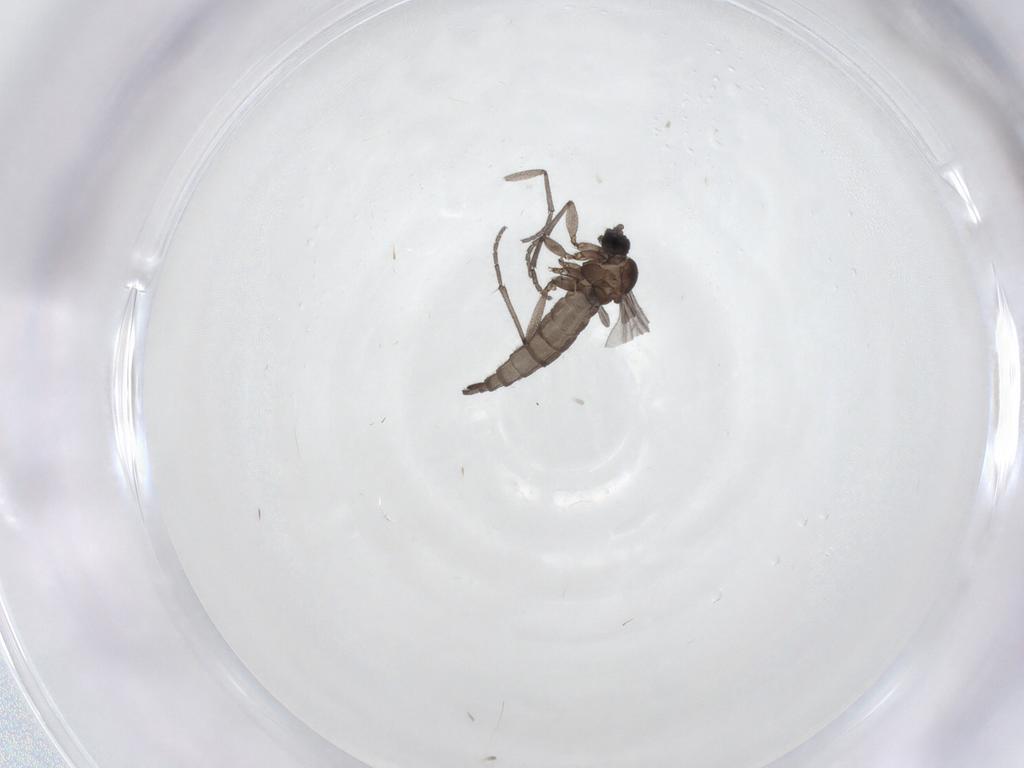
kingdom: Animalia
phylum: Arthropoda
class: Insecta
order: Diptera
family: Sciaridae
